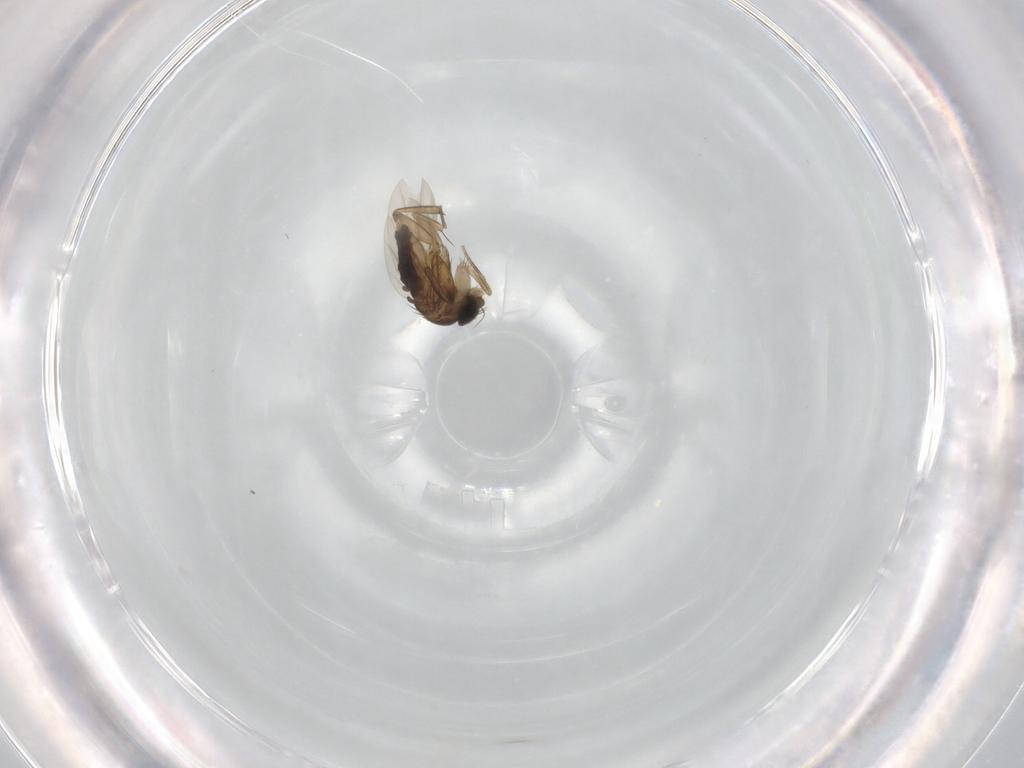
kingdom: Animalia
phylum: Arthropoda
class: Insecta
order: Diptera
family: Phoridae
